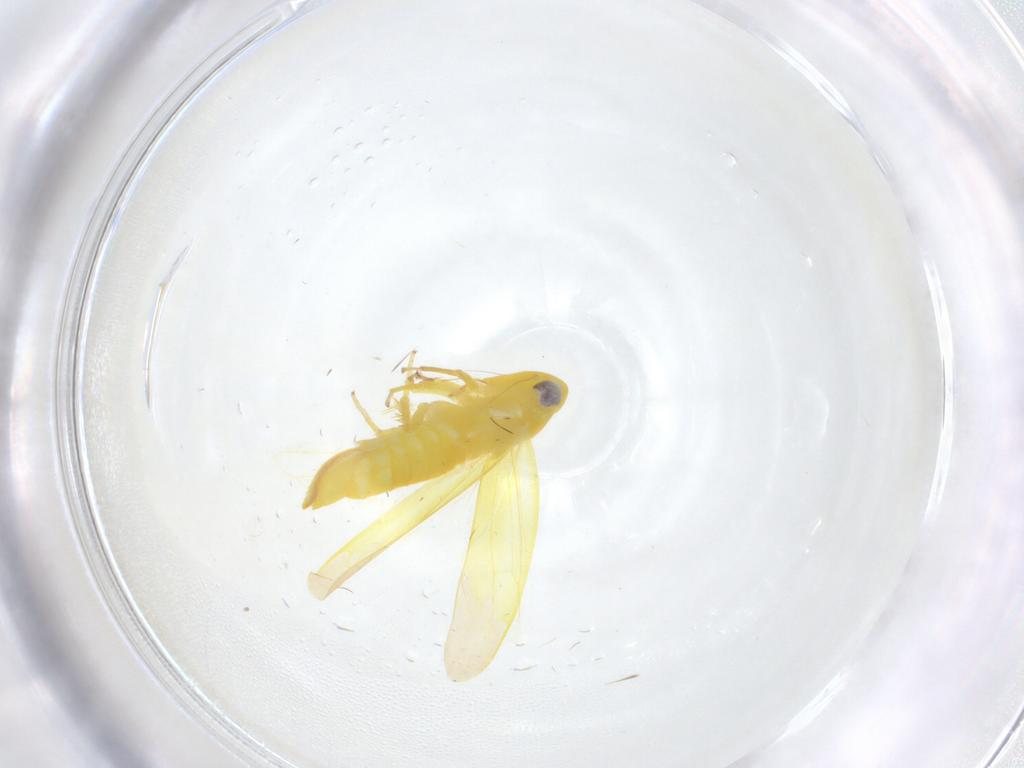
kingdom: Animalia
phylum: Arthropoda
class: Insecta
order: Hemiptera
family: Cicadellidae
